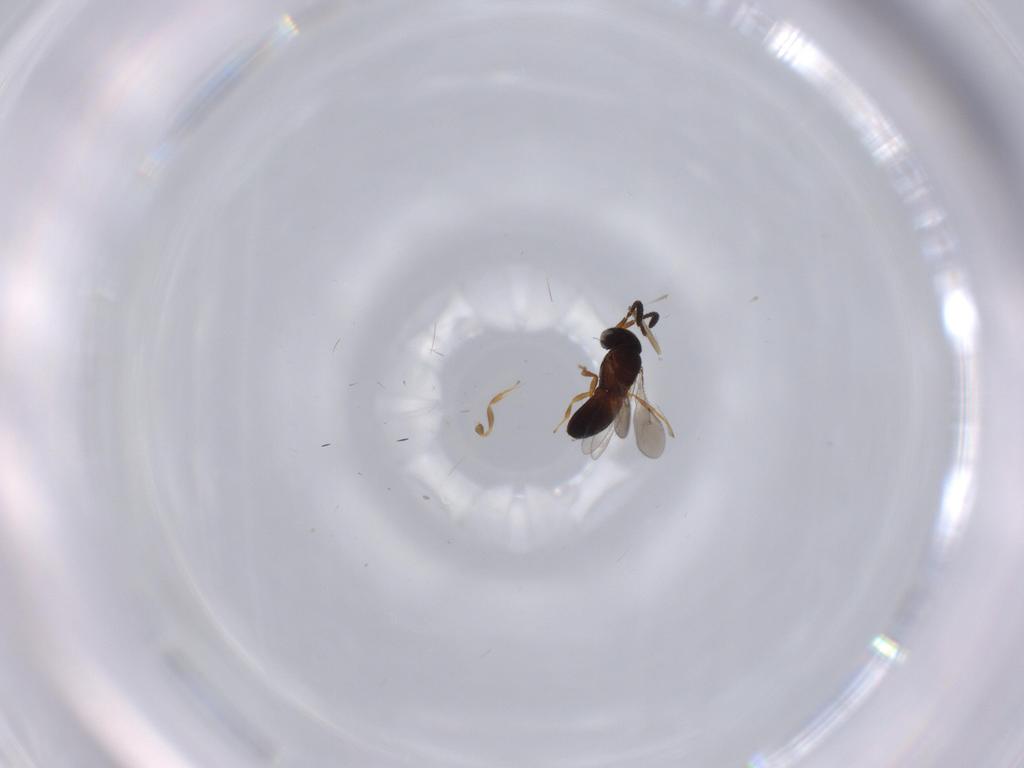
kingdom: Animalia
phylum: Arthropoda
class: Insecta
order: Hymenoptera
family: Scelionidae
